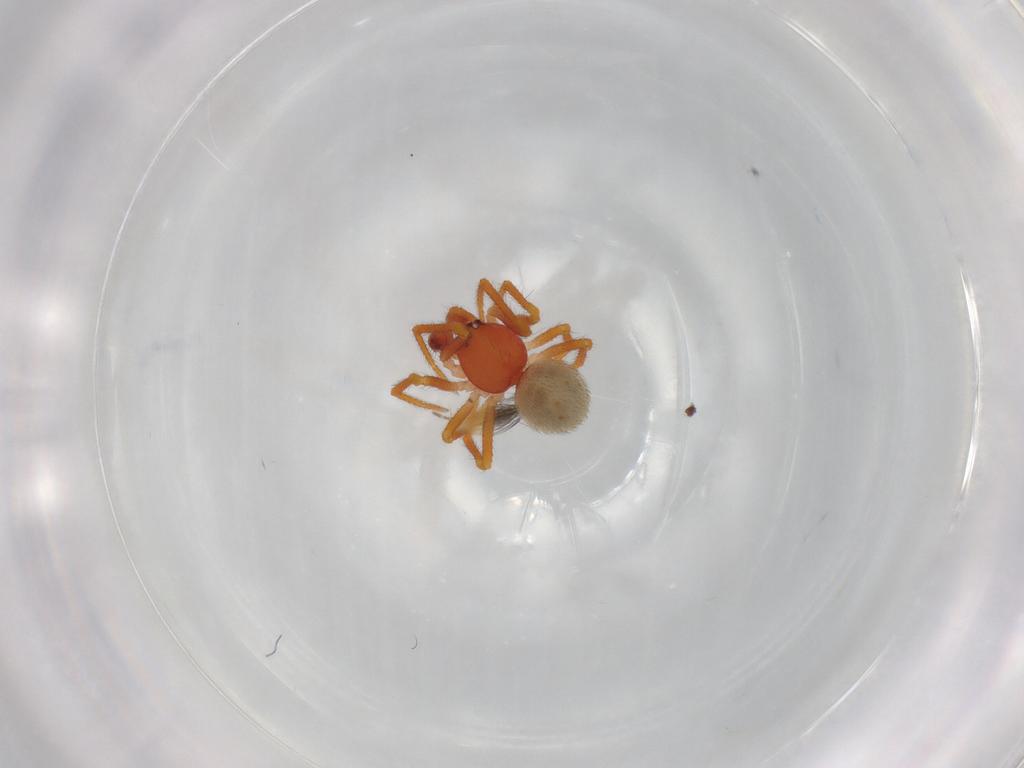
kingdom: Animalia
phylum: Arthropoda
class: Arachnida
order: Araneae
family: Theridiidae
